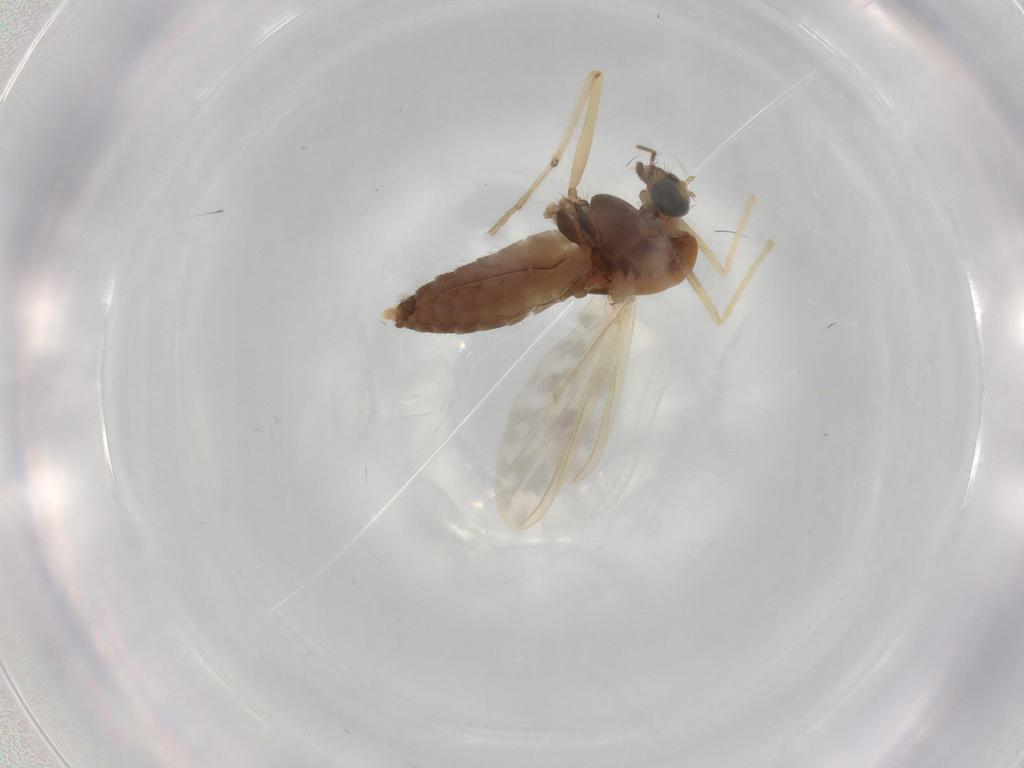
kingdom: Animalia
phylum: Arthropoda
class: Insecta
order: Diptera
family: Chironomidae
